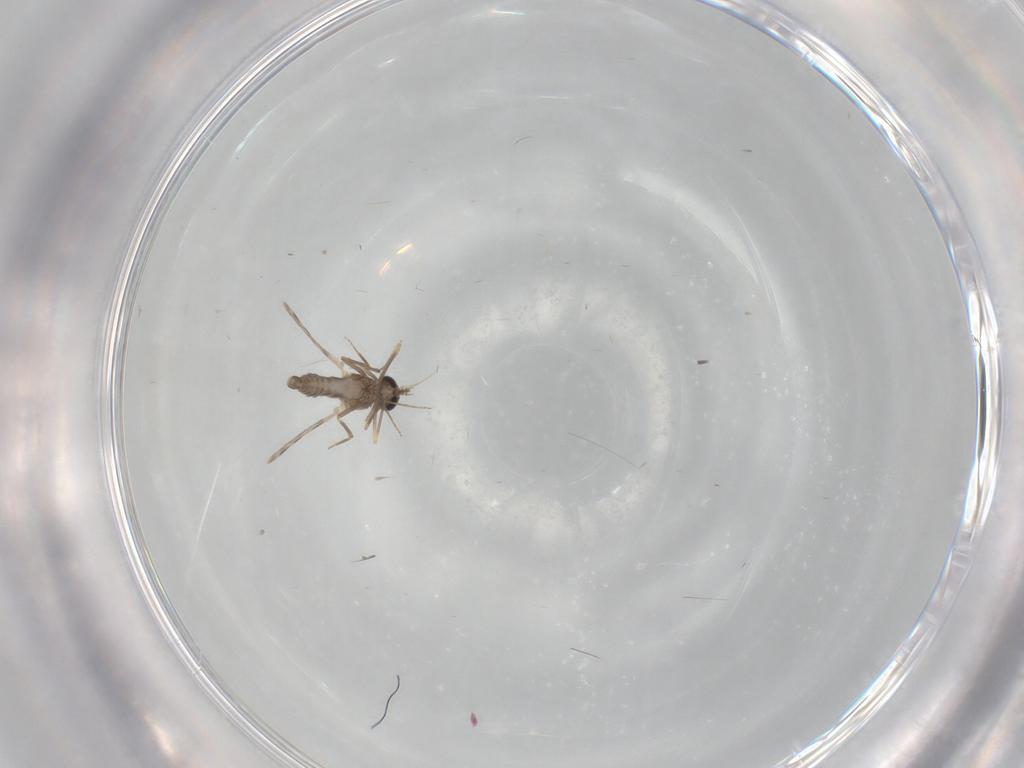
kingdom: Animalia
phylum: Arthropoda
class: Insecta
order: Diptera
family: Ceratopogonidae
